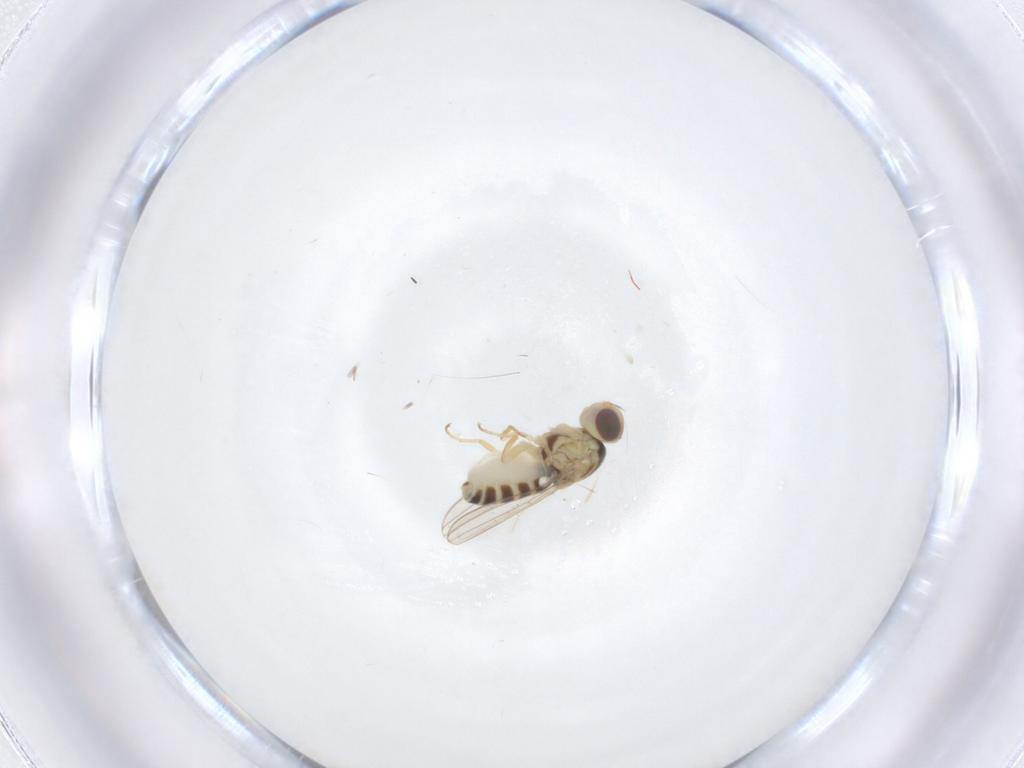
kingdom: Animalia
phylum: Arthropoda
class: Insecta
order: Diptera
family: Chyromyidae
